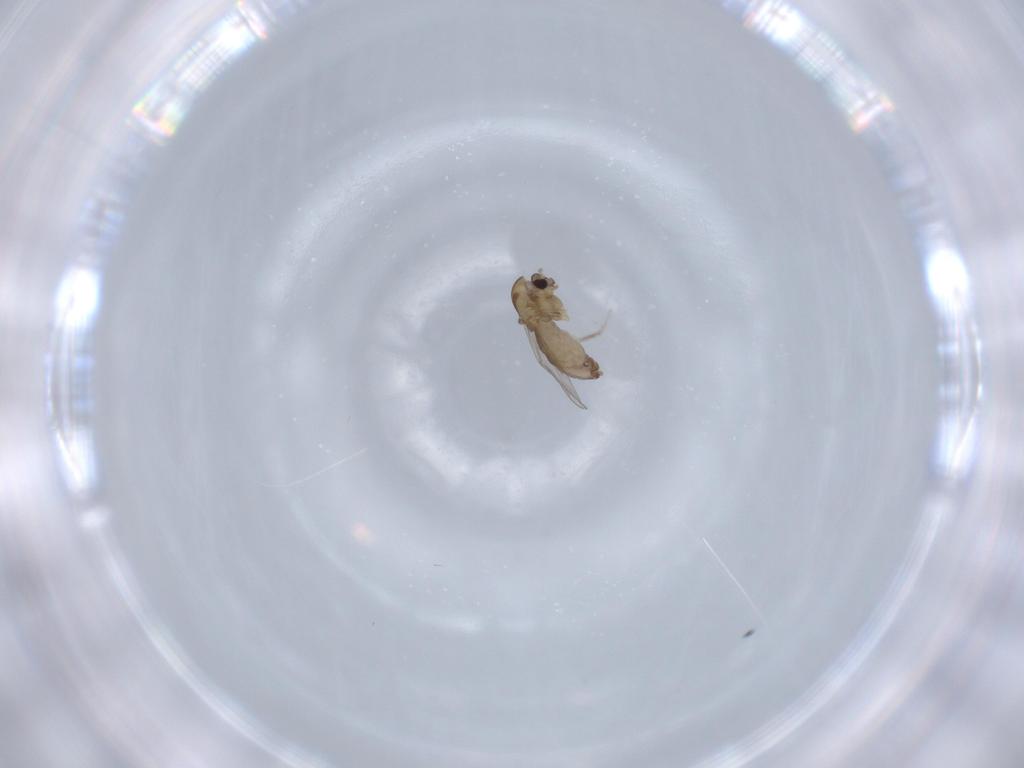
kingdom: Animalia
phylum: Arthropoda
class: Insecta
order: Diptera
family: Chironomidae
